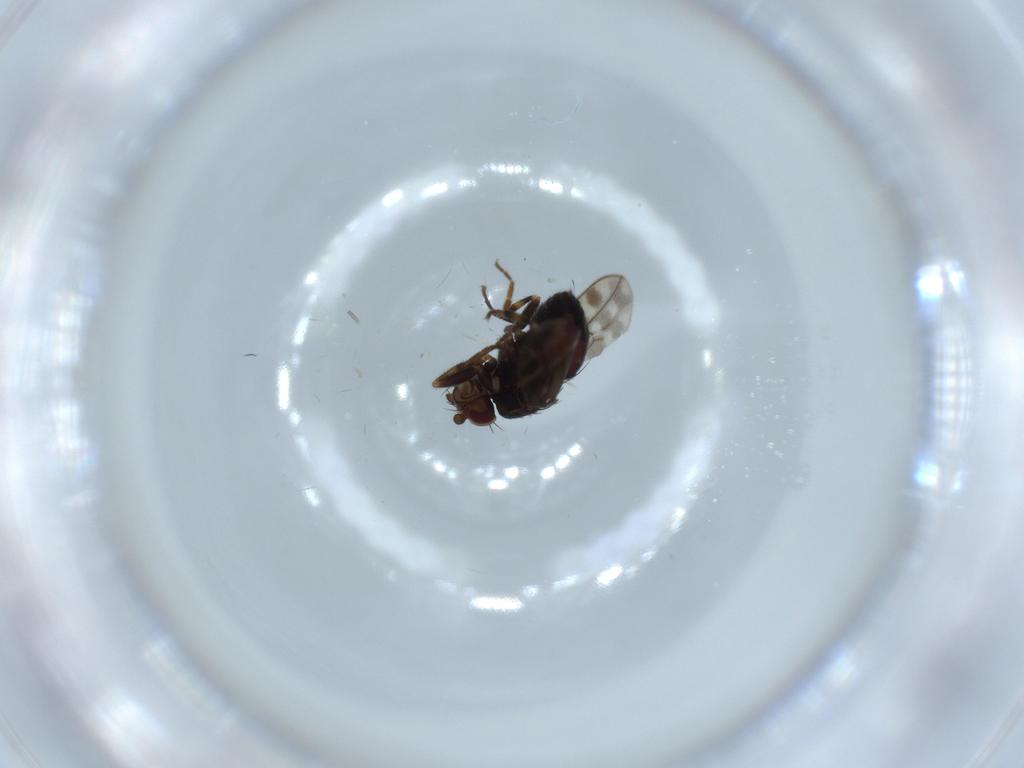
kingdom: Animalia
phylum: Arthropoda
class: Insecta
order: Diptera
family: Sphaeroceridae
